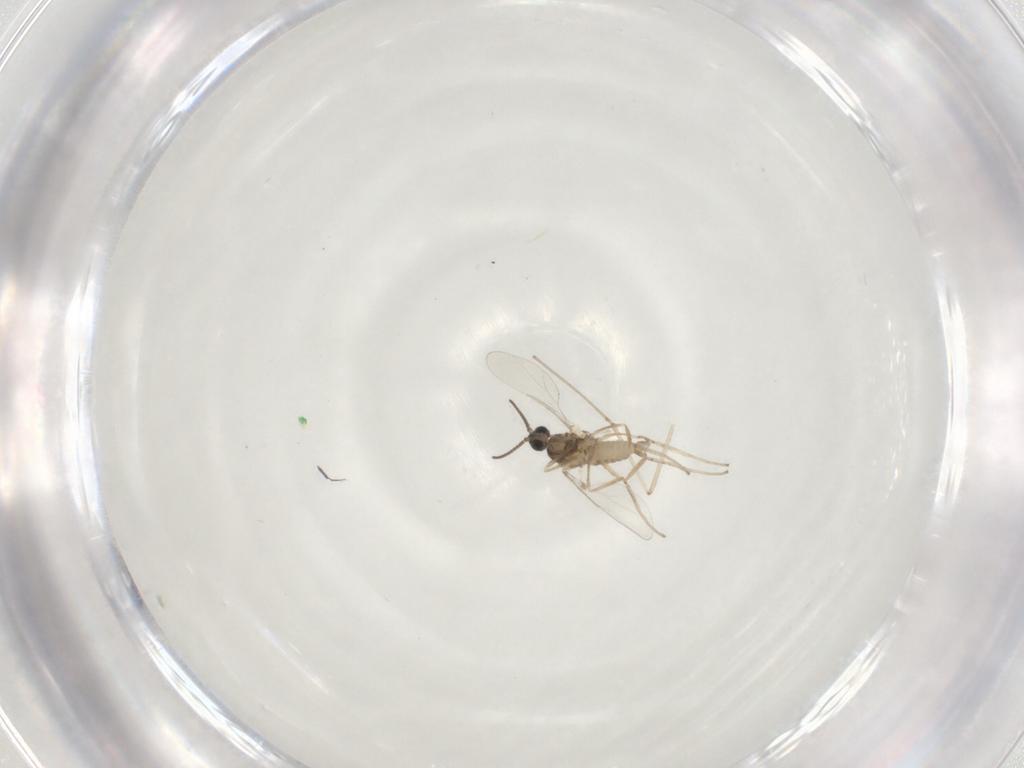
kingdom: Animalia
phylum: Arthropoda
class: Insecta
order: Diptera
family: Cecidomyiidae
